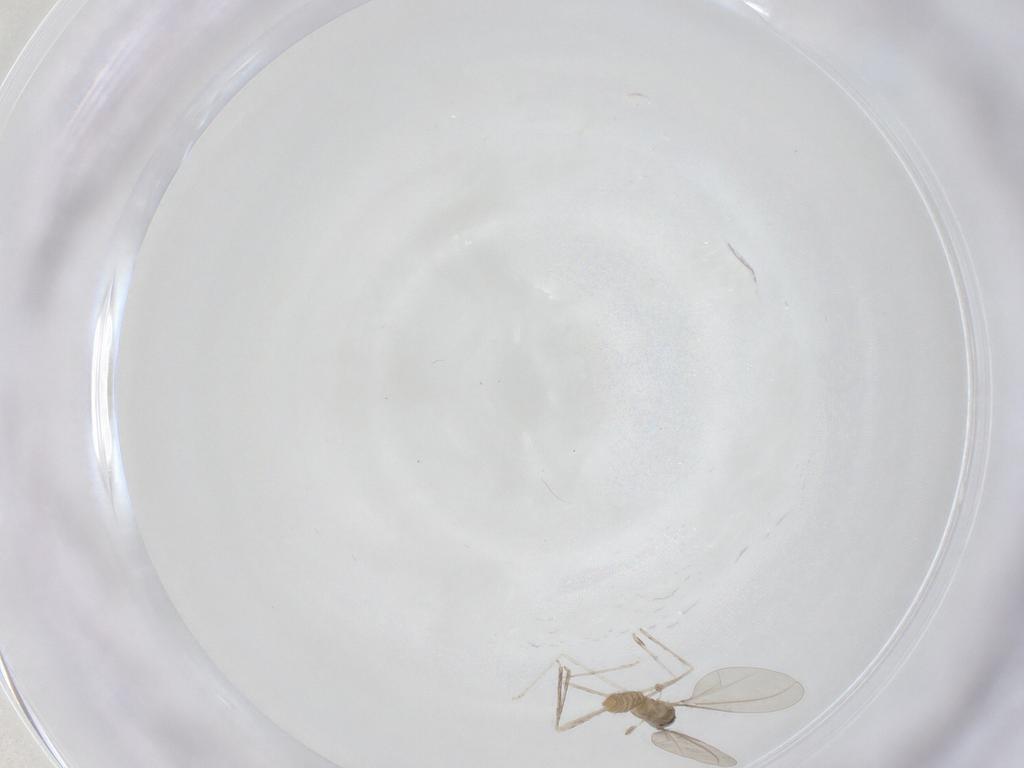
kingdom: Animalia
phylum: Arthropoda
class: Insecta
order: Diptera
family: Cecidomyiidae
